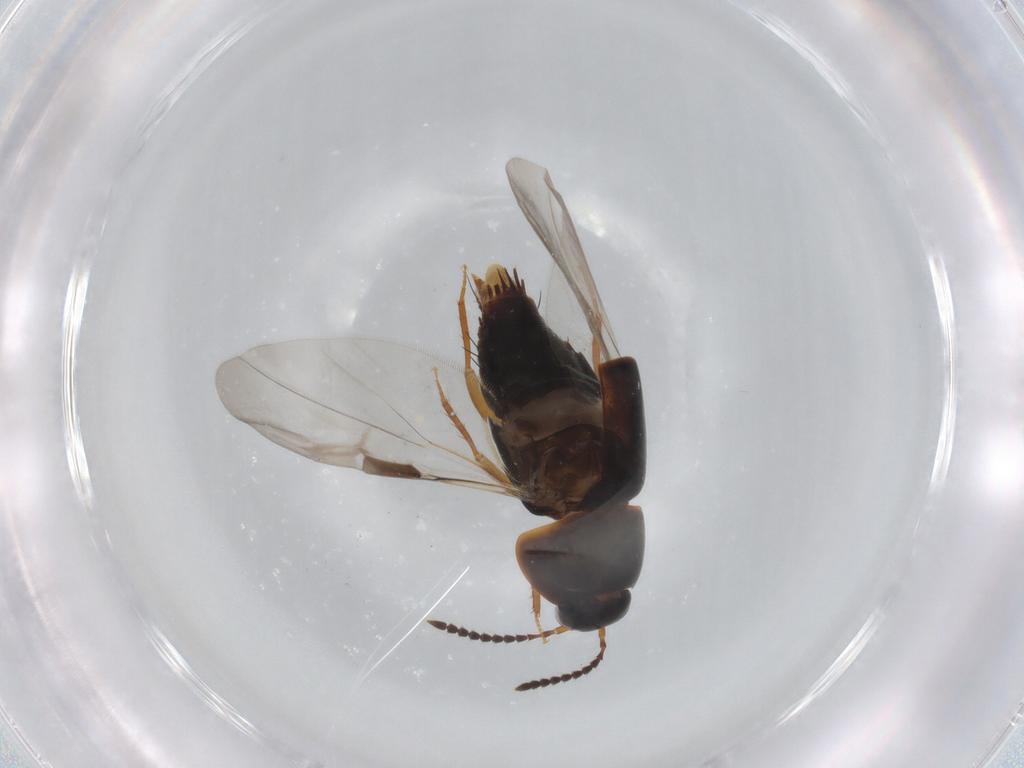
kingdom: Animalia
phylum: Arthropoda
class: Insecta
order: Coleoptera
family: Staphylinidae
